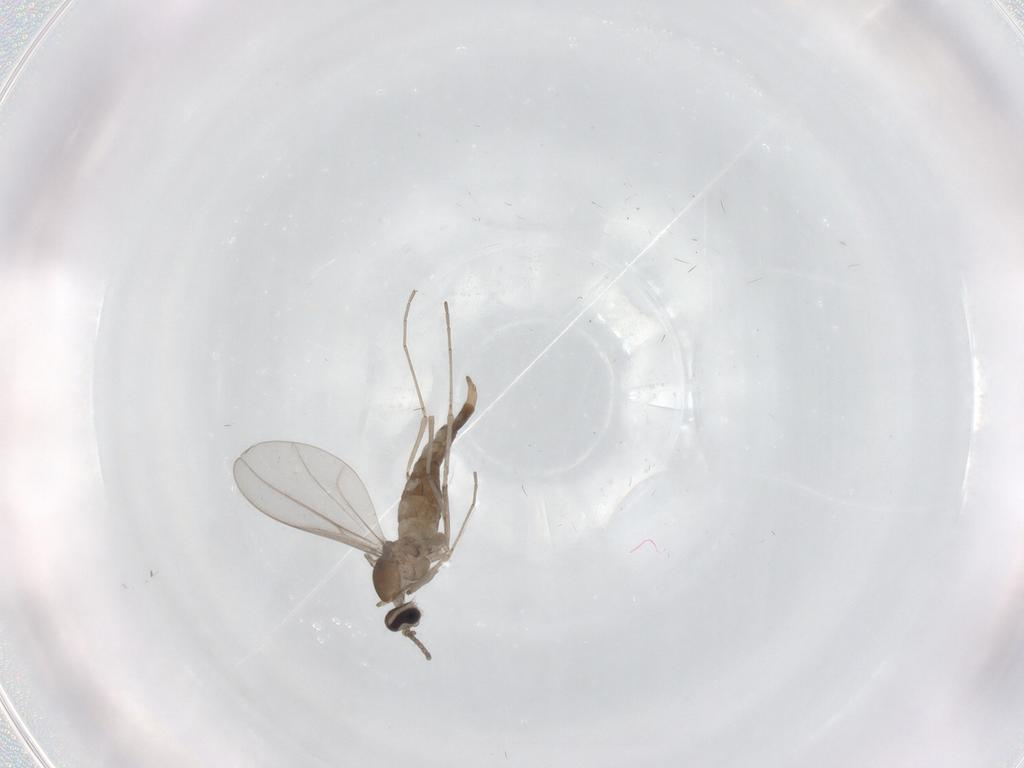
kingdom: Animalia
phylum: Arthropoda
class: Insecta
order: Diptera
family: Cecidomyiidae
